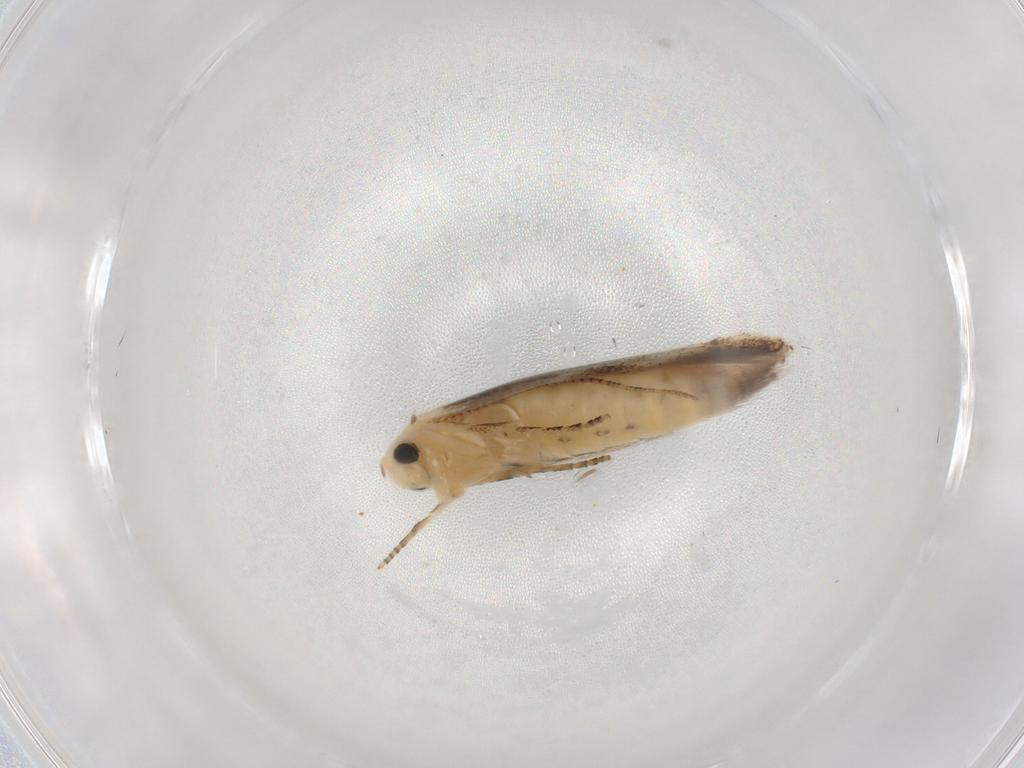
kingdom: Animalia
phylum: Arthropoda
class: Insecta
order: Lepidoptera
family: Bucculatricidae
